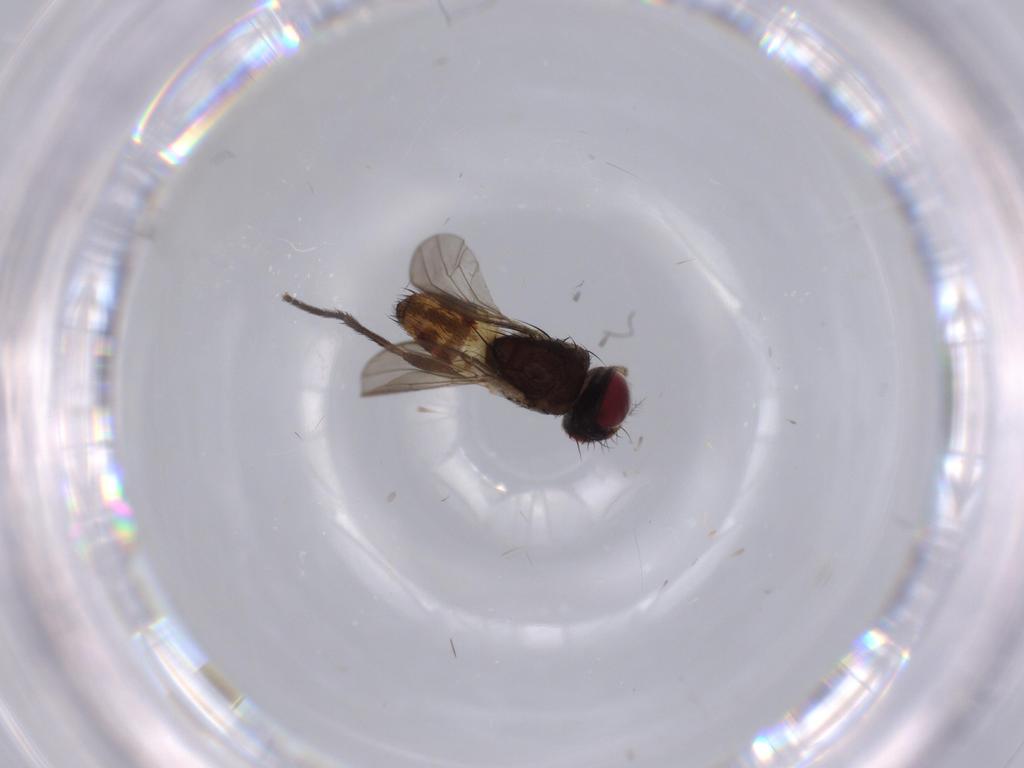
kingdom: Animalia
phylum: Arthropoda
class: Insecta
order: Diptera
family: Anthomyiidae
